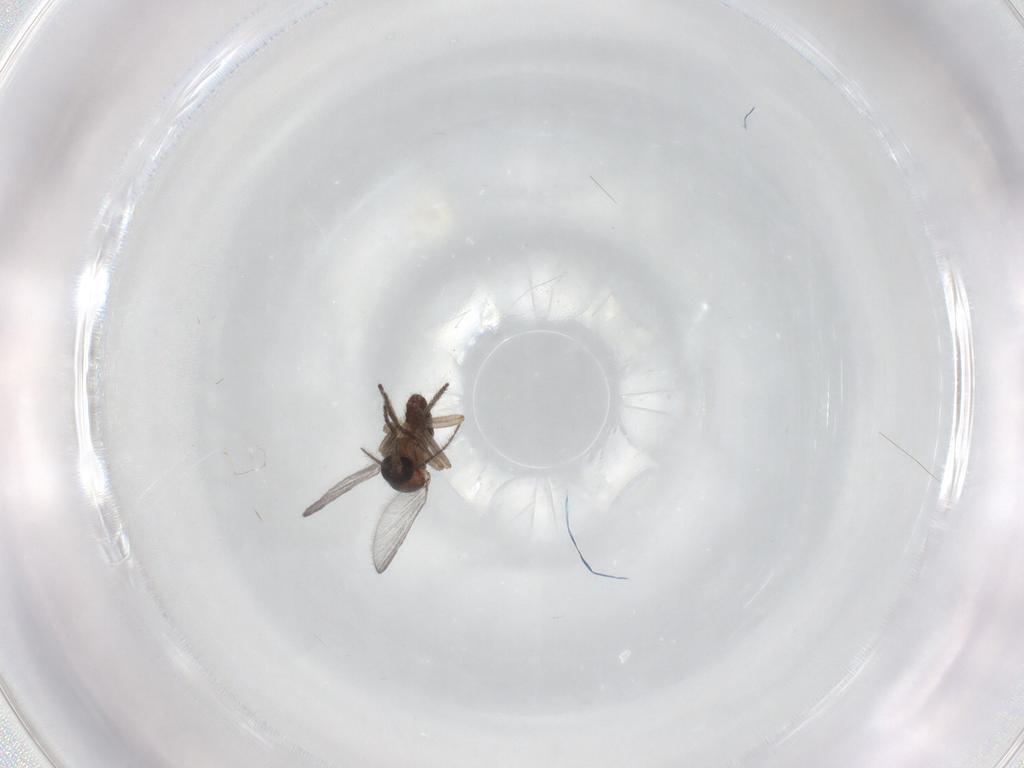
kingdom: Animalia
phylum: Arthropoda
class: Insecta
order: Diptera
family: Ceratopogonidae
